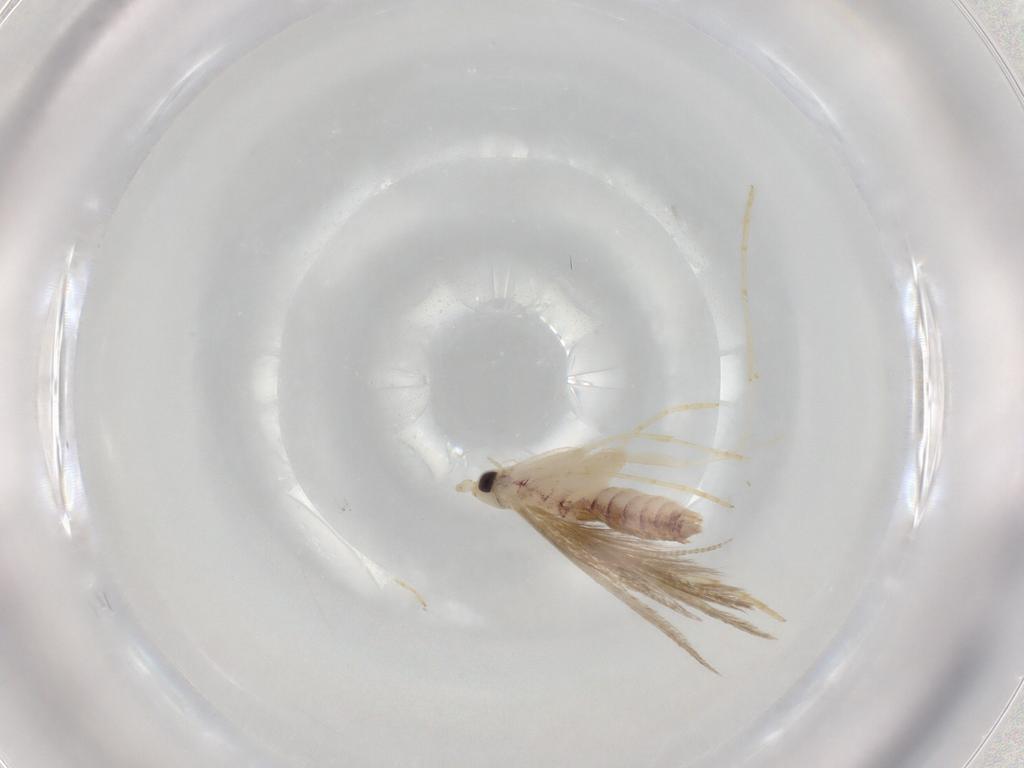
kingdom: Animalia
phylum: Arthropoda
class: Insecta
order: Lepidoptera
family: Lyonetiidae
